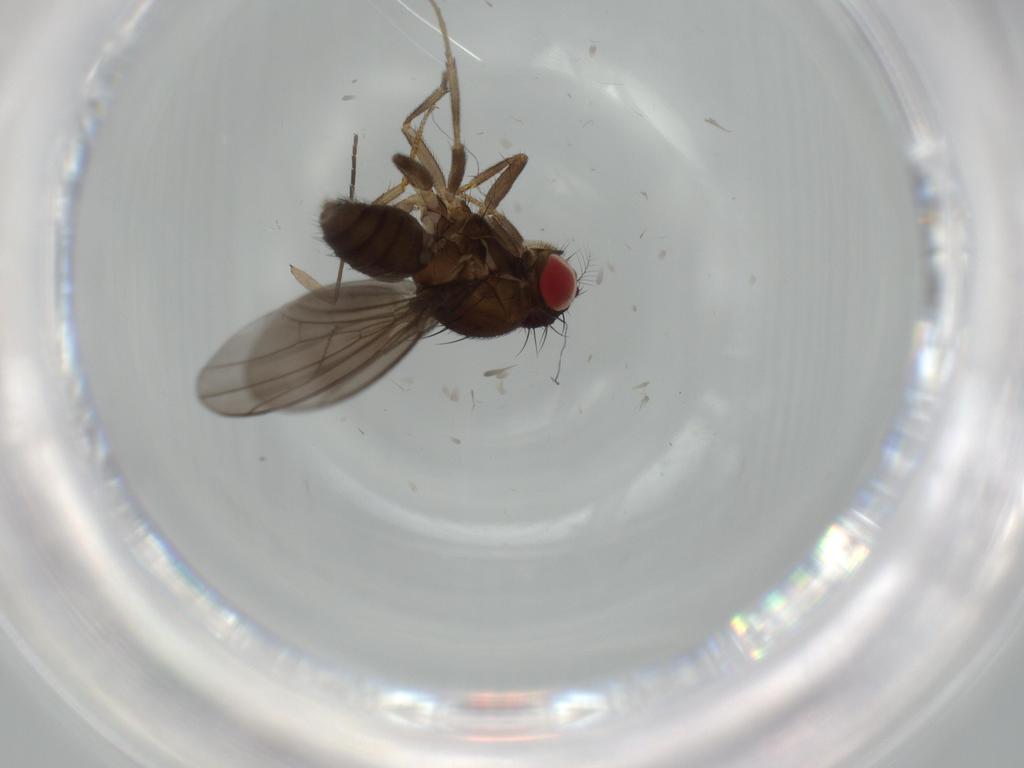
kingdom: Animalia
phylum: Arthropoda
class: Insecta
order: Diptera
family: Drosophilidae
